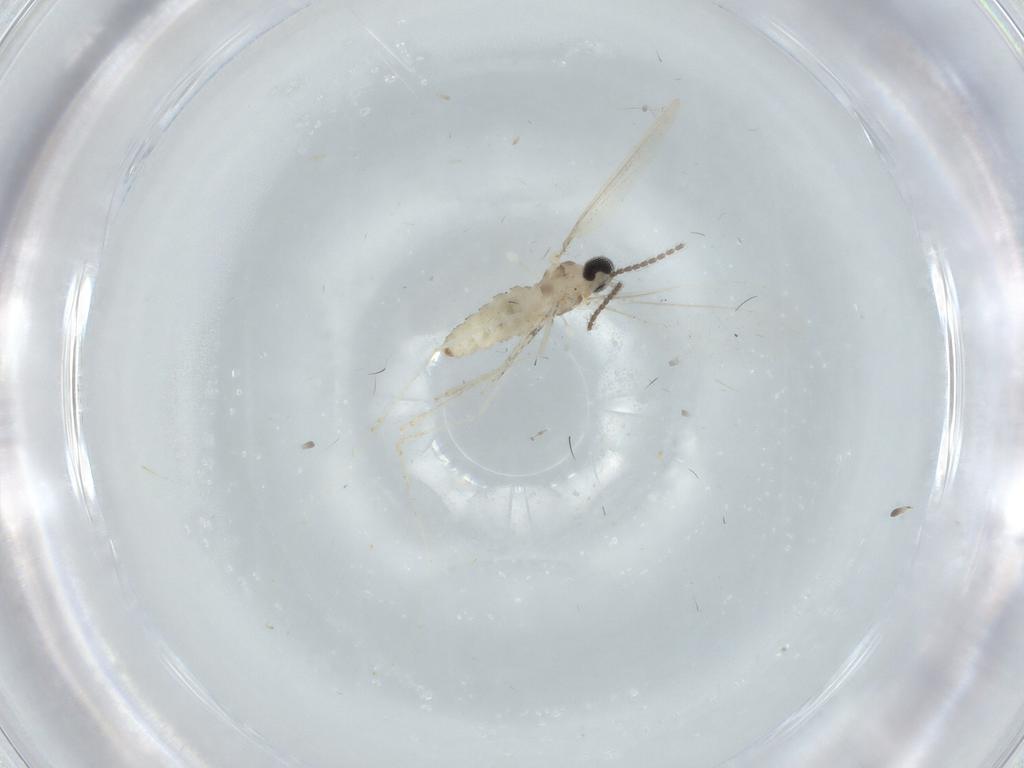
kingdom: Animalia
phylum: Arthropoda
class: Insecta
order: Diptera
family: Cecidomyiidae
